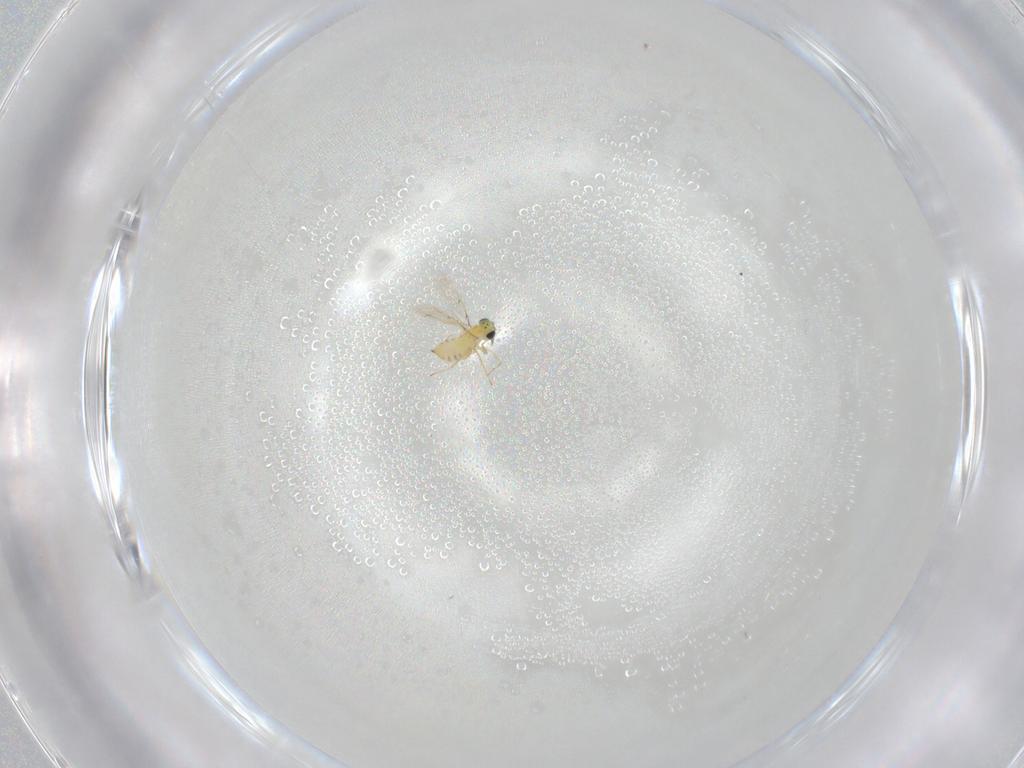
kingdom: Animalia
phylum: Arthropoda
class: Insecta
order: Hymenoptera
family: Trichogrammatidae
